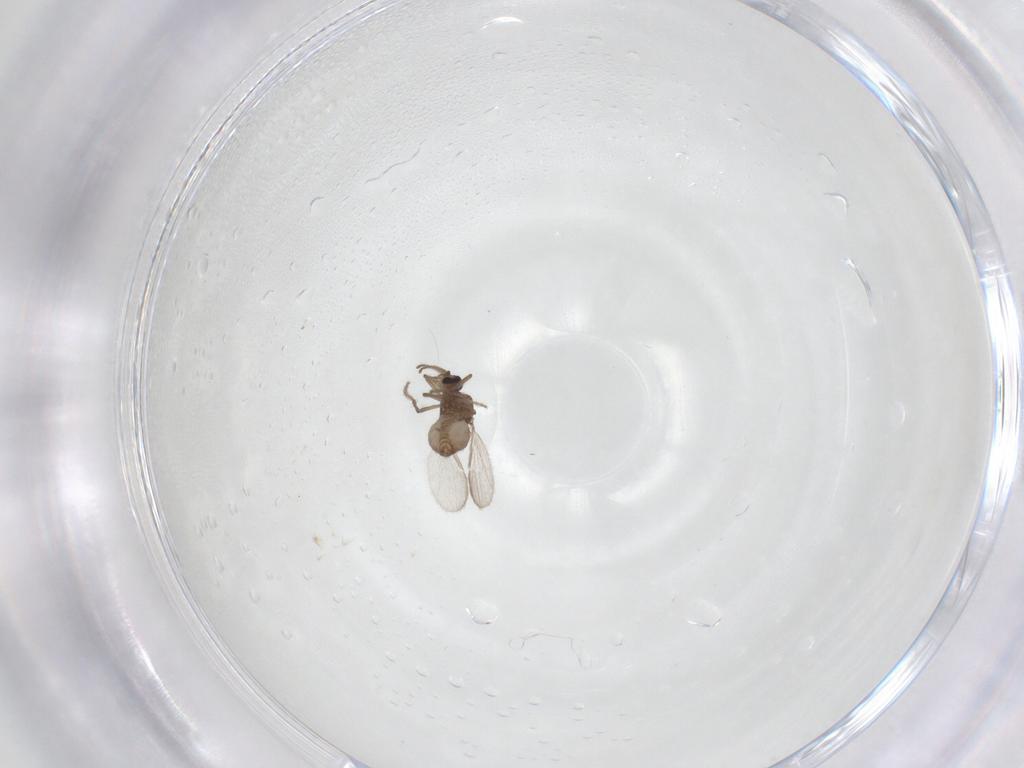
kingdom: Animalia
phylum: Arthropoda
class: Insecta
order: Diptera
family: Ceratopogonidae
